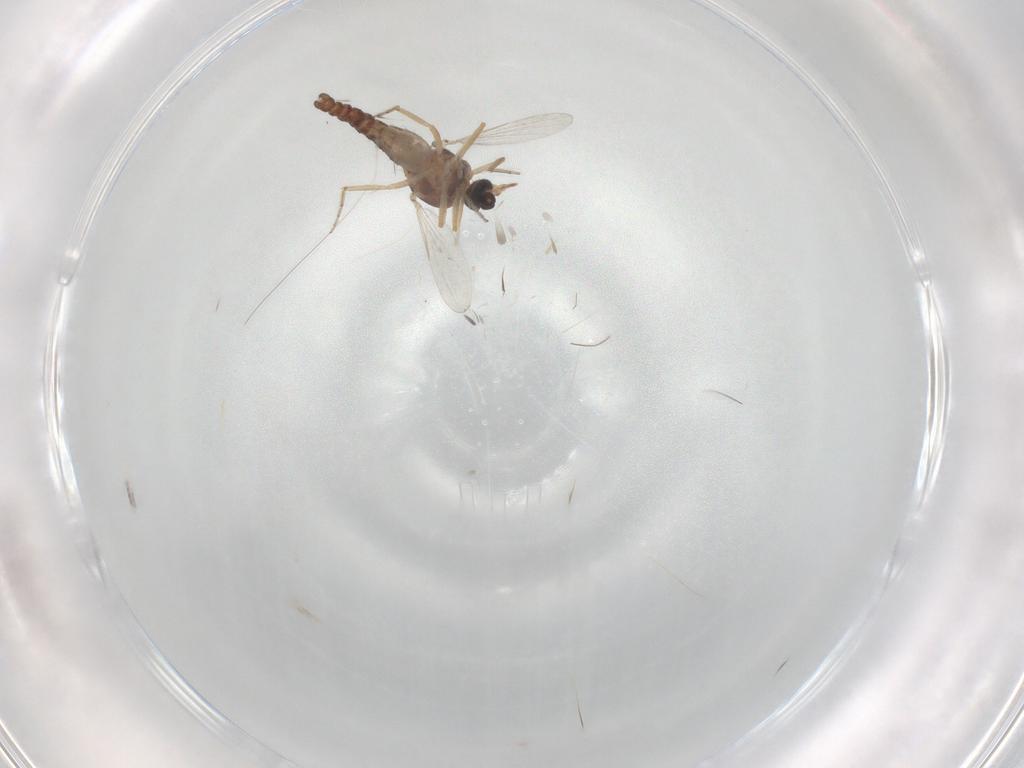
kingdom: Animalia
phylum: Arthropoda
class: Insecta
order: Diptera
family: Ceratopogonidae
